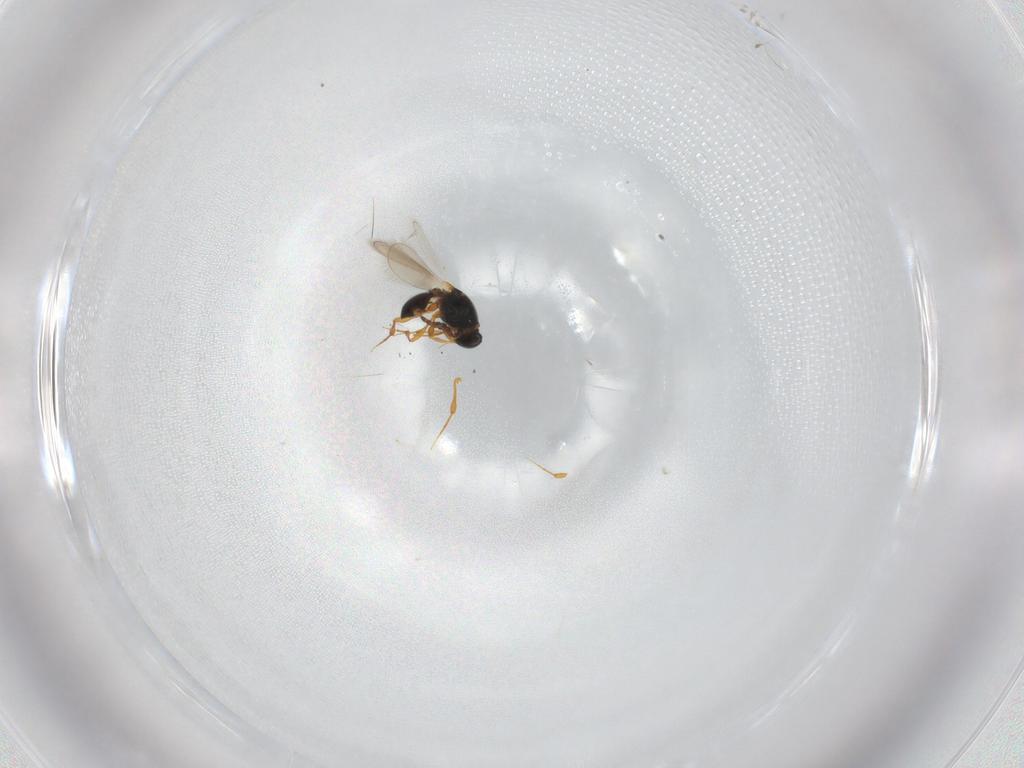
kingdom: Animalia
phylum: Arthropoda
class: Insecta
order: Hymenoptera
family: Platygastridae
